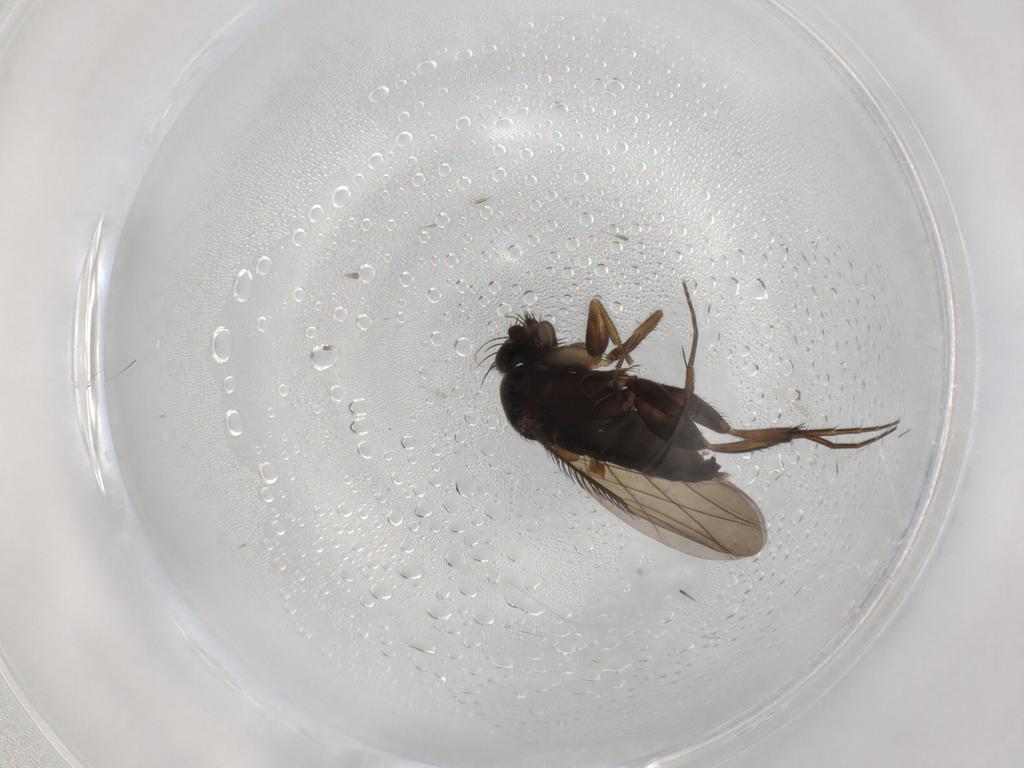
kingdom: Animalia
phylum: Arthropoda
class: Insecta
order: Diptera
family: Phoridae
